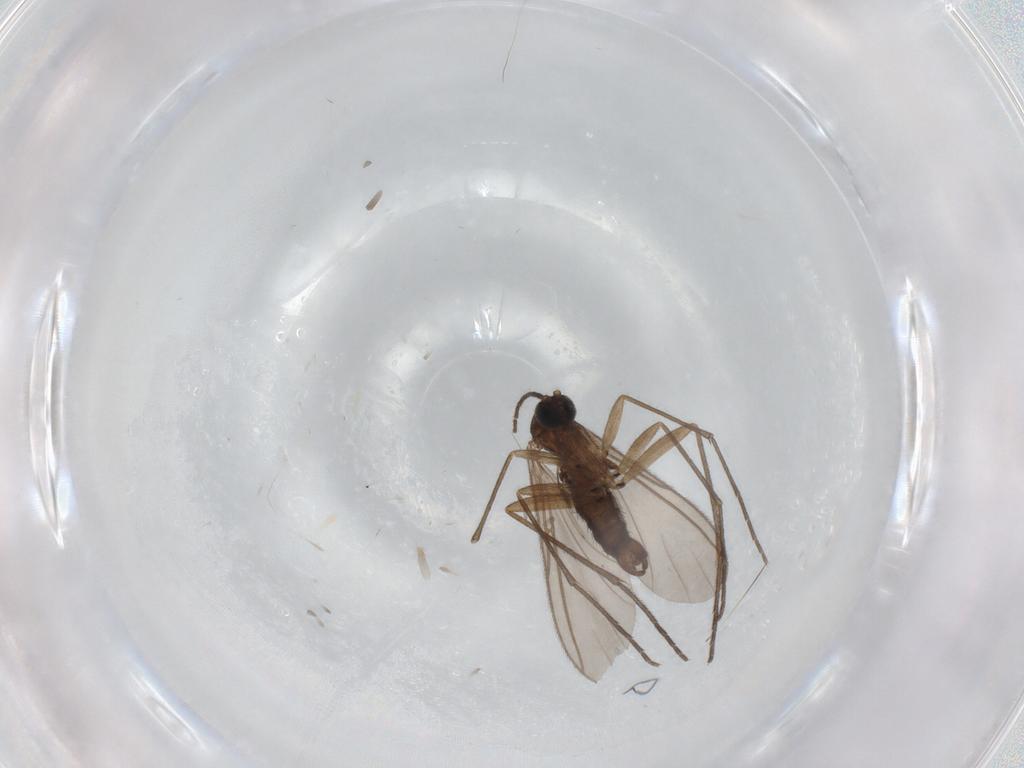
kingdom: Animalia
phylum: Arthropoda
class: Insecta
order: Diptera
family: Sciaridae
